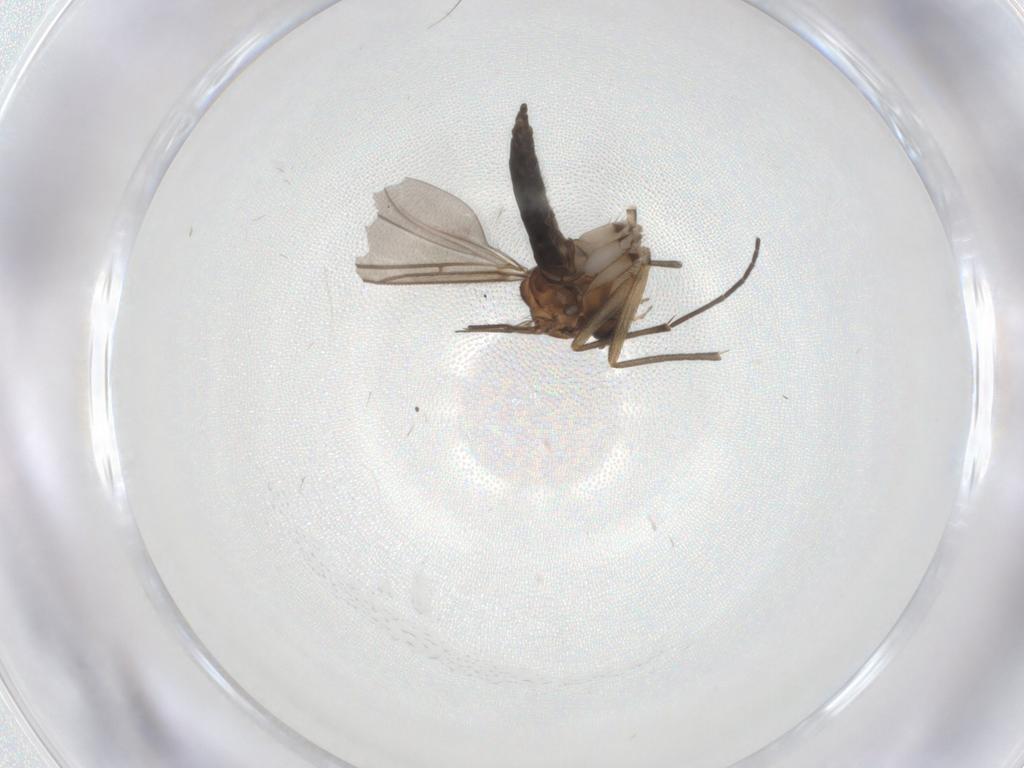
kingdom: Animalia
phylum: Arthropoda
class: Insecta
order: Diptera
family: Sciaridae
